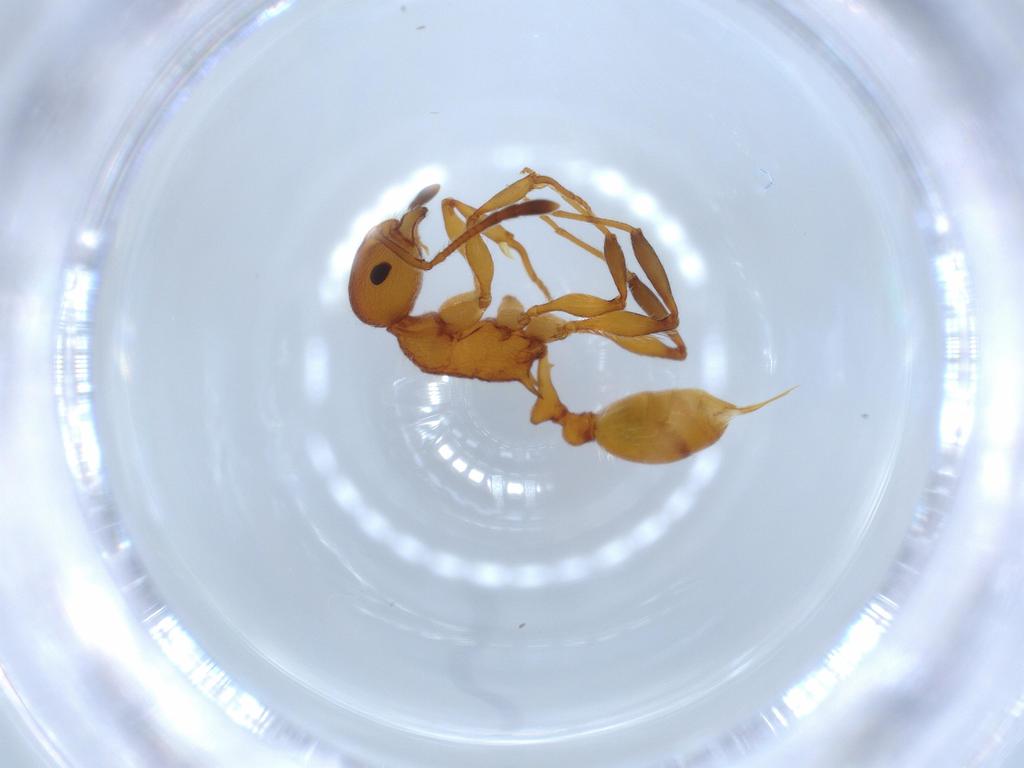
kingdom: Animalia
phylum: Arthropoda
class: Insecta
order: Hymenoptera
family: Formicidae
